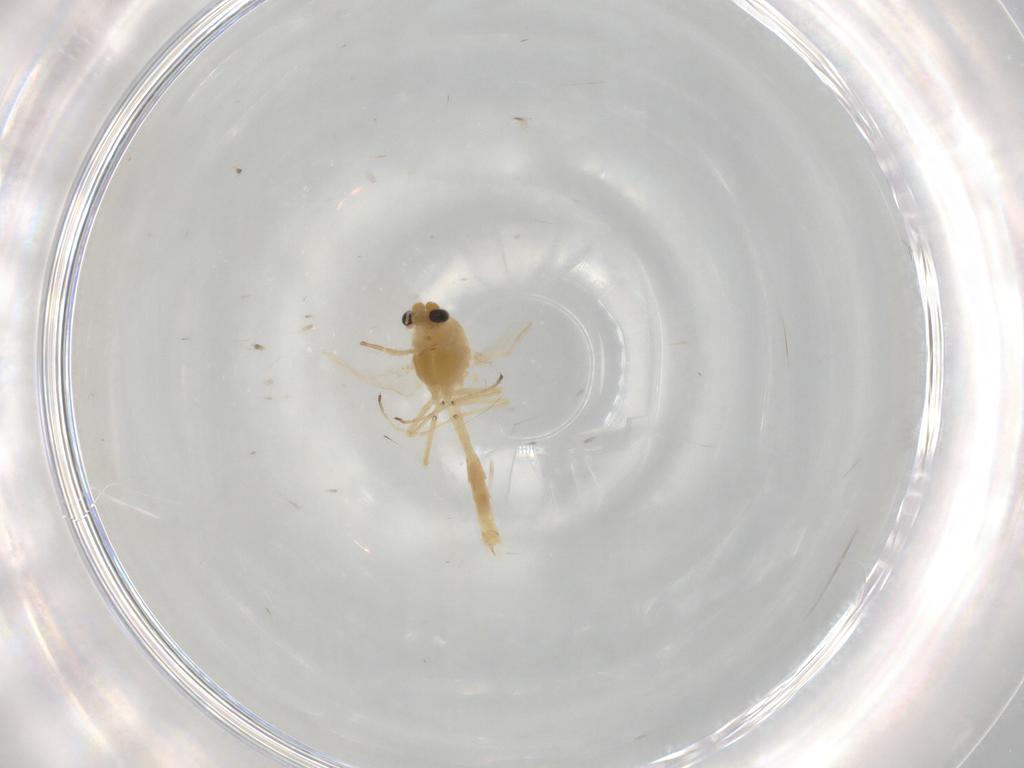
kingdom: Animalia
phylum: Arthropoda
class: Insecta
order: Diptera
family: Chironomidae
